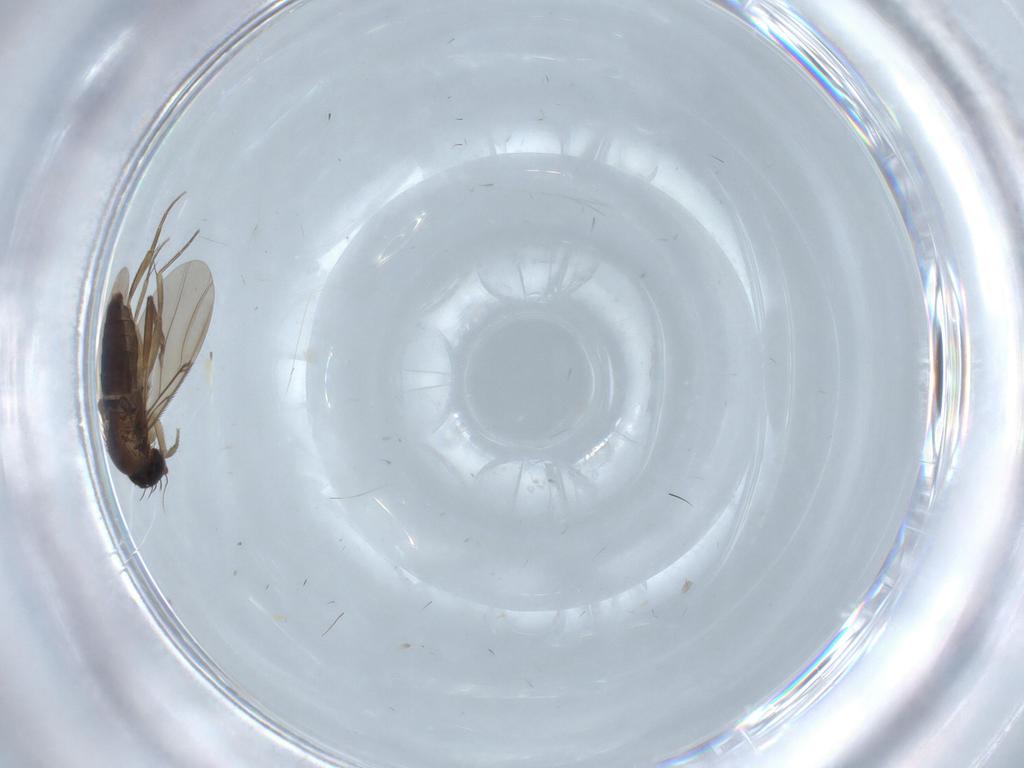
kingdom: Animalia
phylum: Arthropoda
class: Insecta
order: Diptera
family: Phoridae
